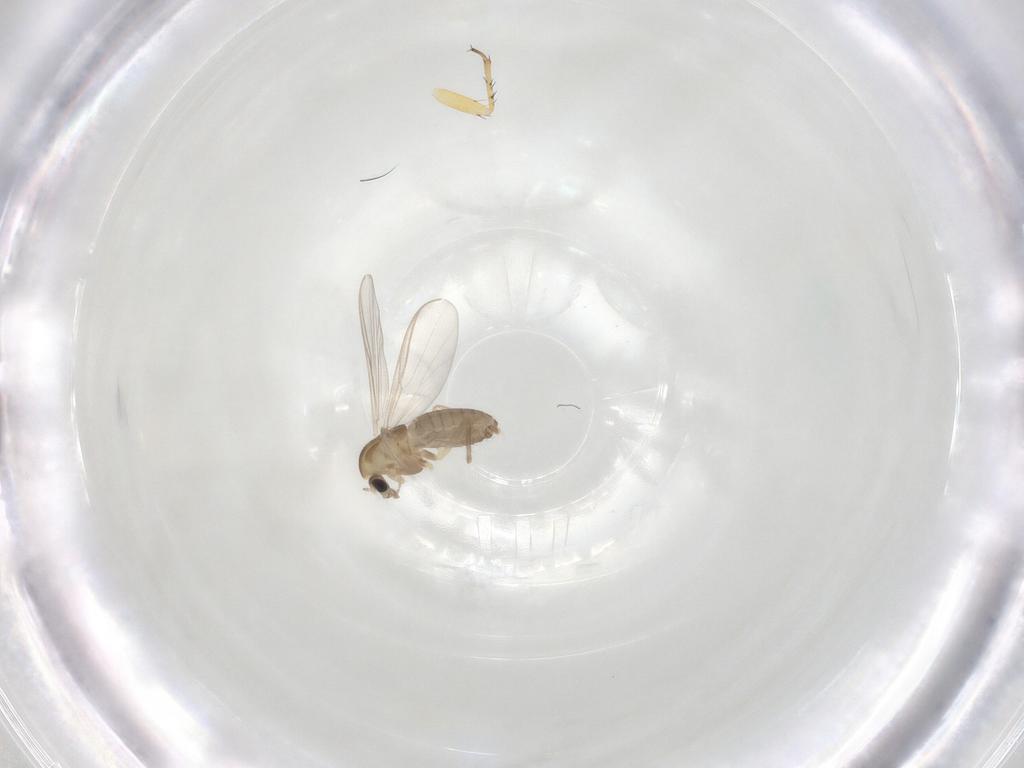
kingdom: Animalia
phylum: Arthropoda
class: Insecta
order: Diptera
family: Chironomidae
